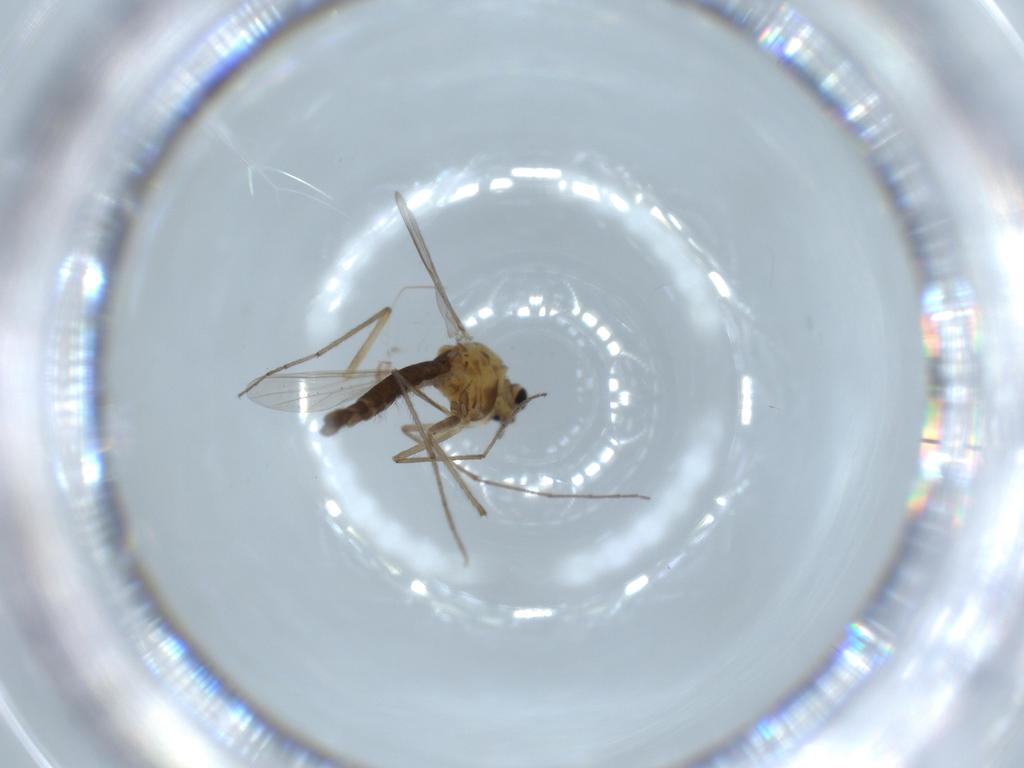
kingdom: Animalia
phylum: Arthropoda
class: Insecta
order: Diptera
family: Chironomidae
